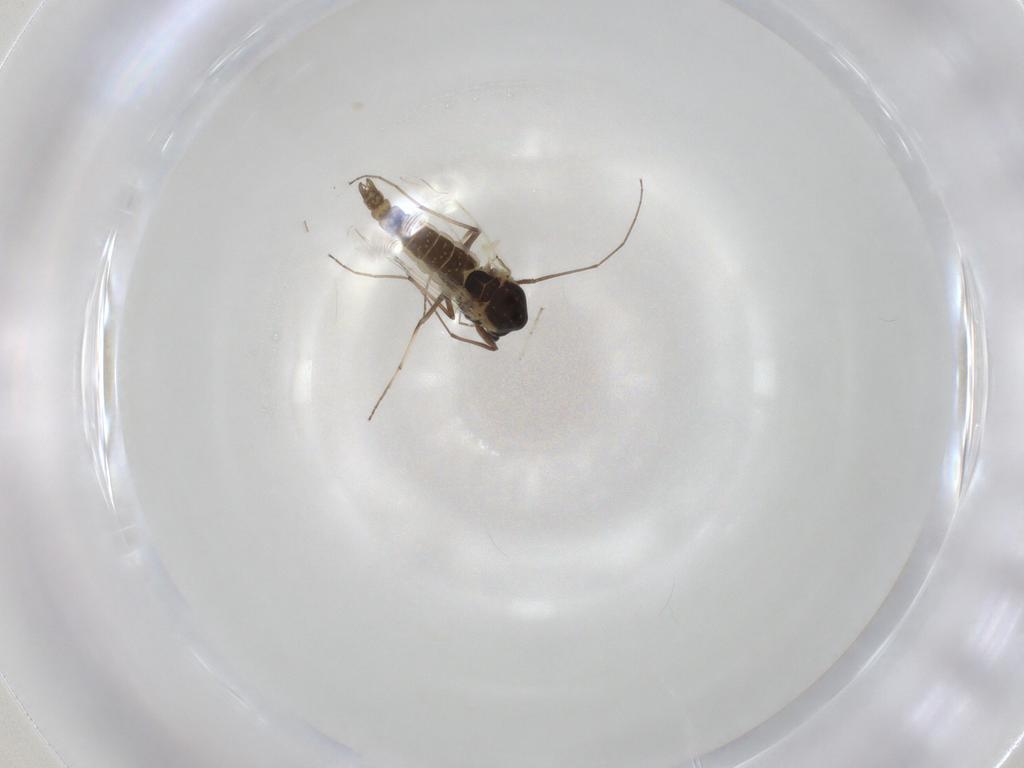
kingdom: Animalia
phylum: Arthropoda
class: Insecta
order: Diptera
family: Chironomidae
